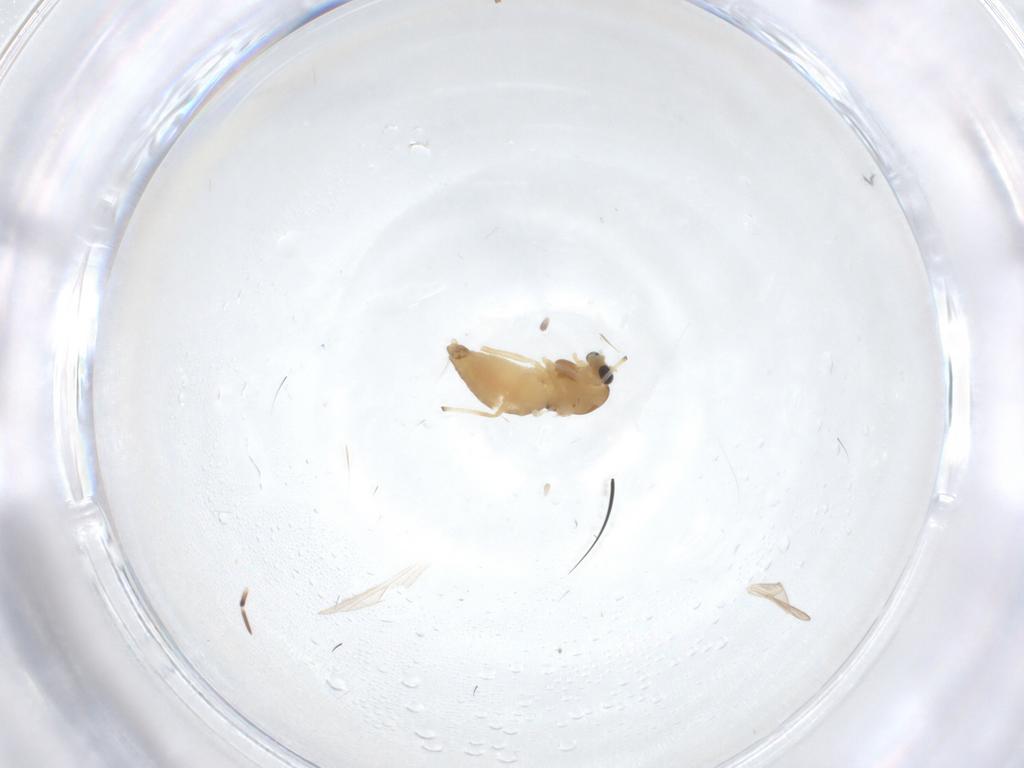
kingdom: Animalia
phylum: Arthropoda
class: Insecta
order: Diptera
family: Chironomidae
